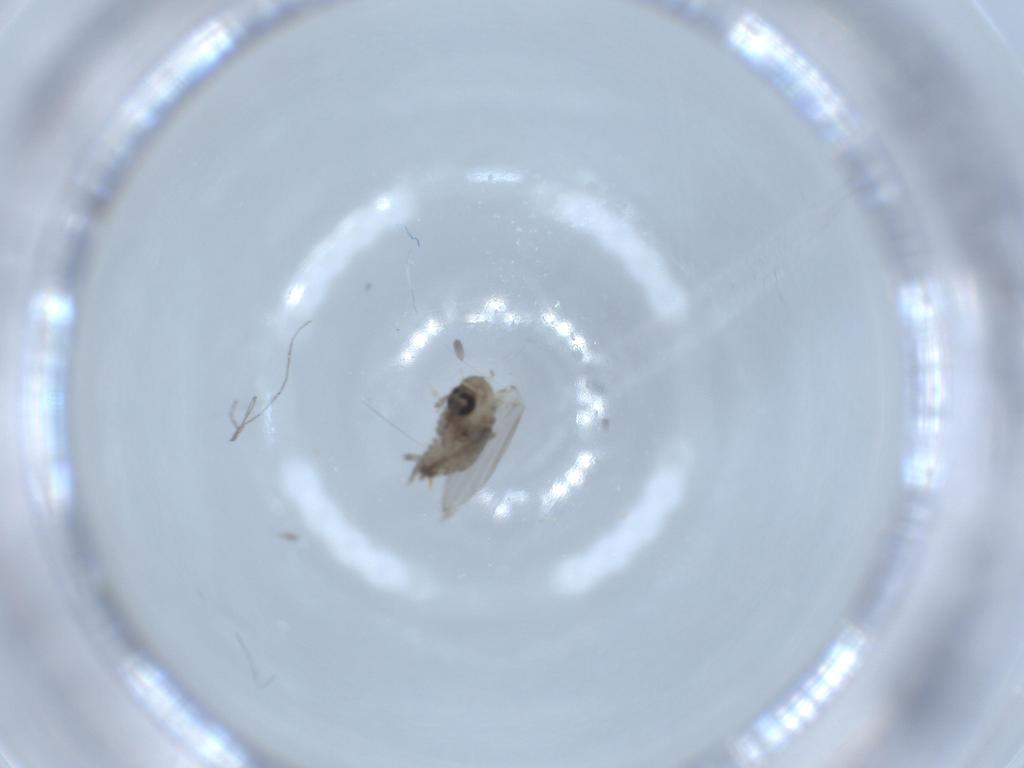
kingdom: Animalia
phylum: Arthropoda
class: Insecta
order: Diptera
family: Psychodidae
